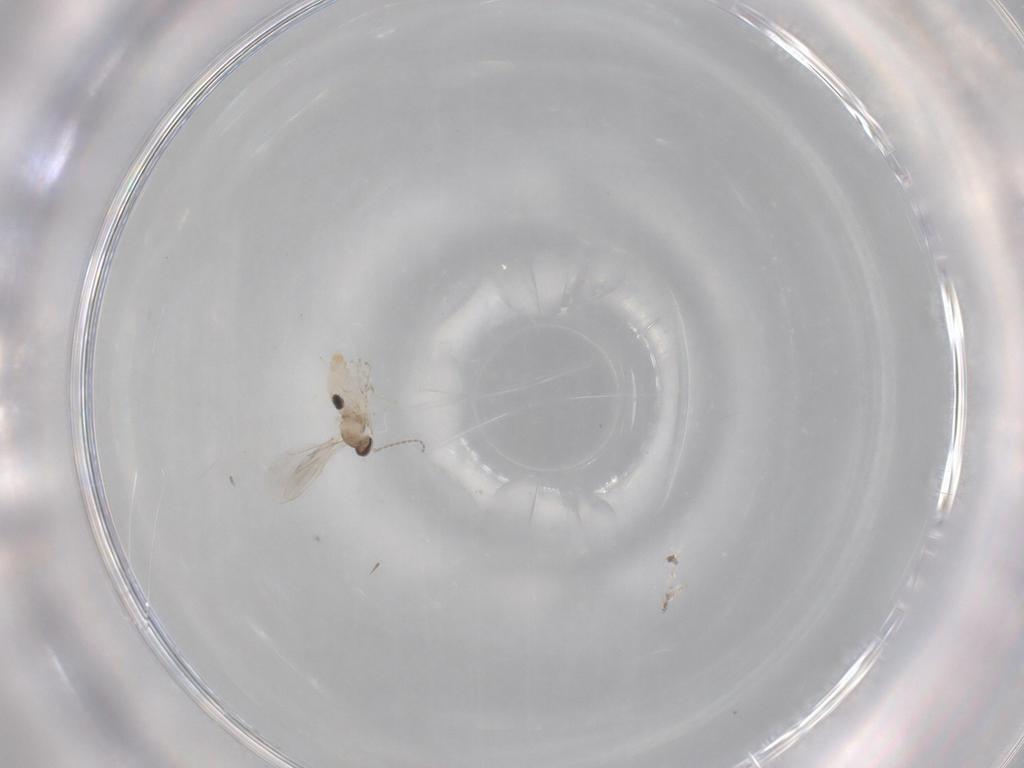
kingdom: Animalia
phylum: Arthropoda
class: Insecta
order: Diptera
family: Cecidomyiidae
